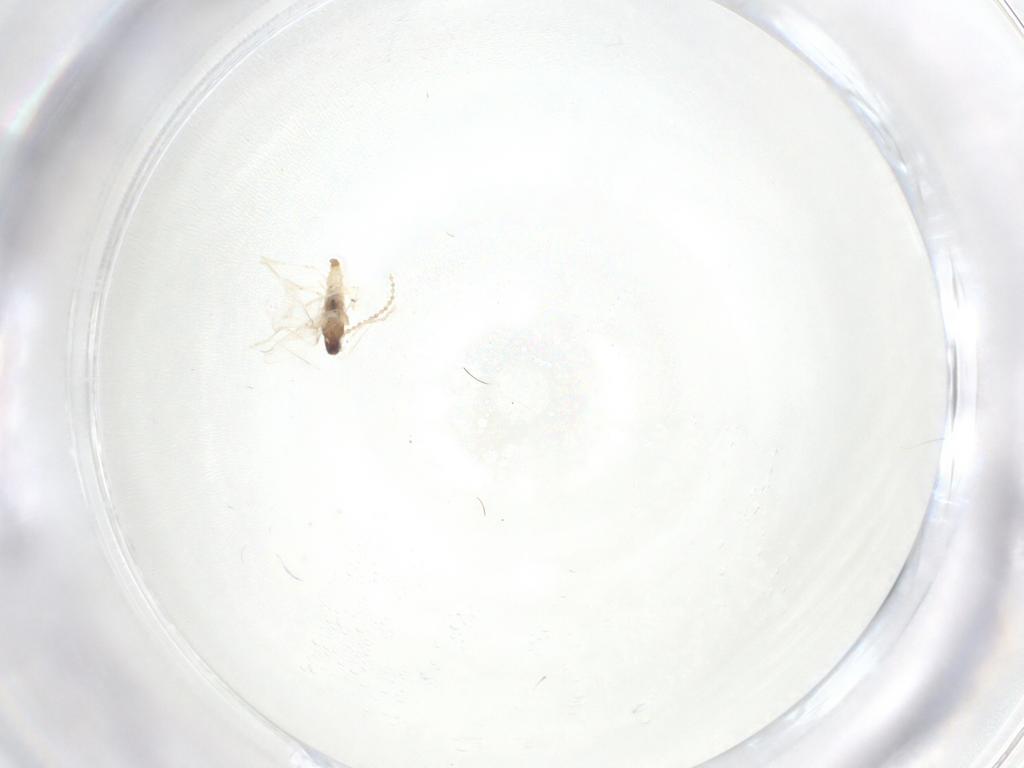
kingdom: Animalia
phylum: Arthropoda
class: Insecta
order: Diptera
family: Cecidomyiidae
